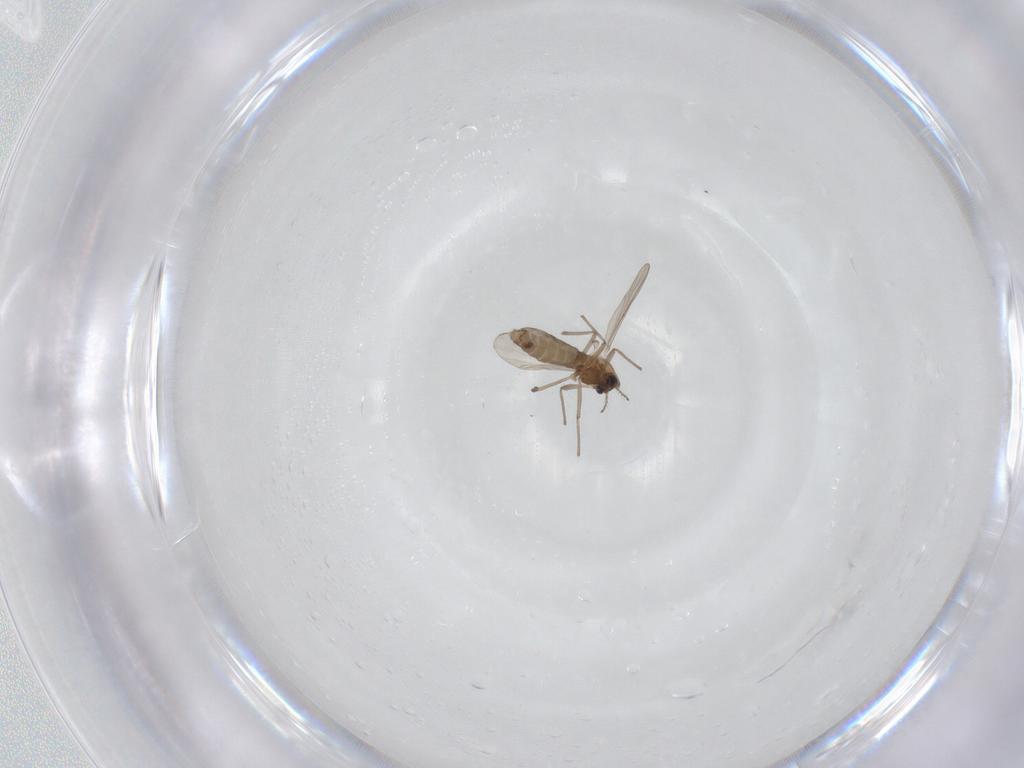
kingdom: Animalia
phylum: Arthropoda
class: Insecta
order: Diptera
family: Chironomidae
